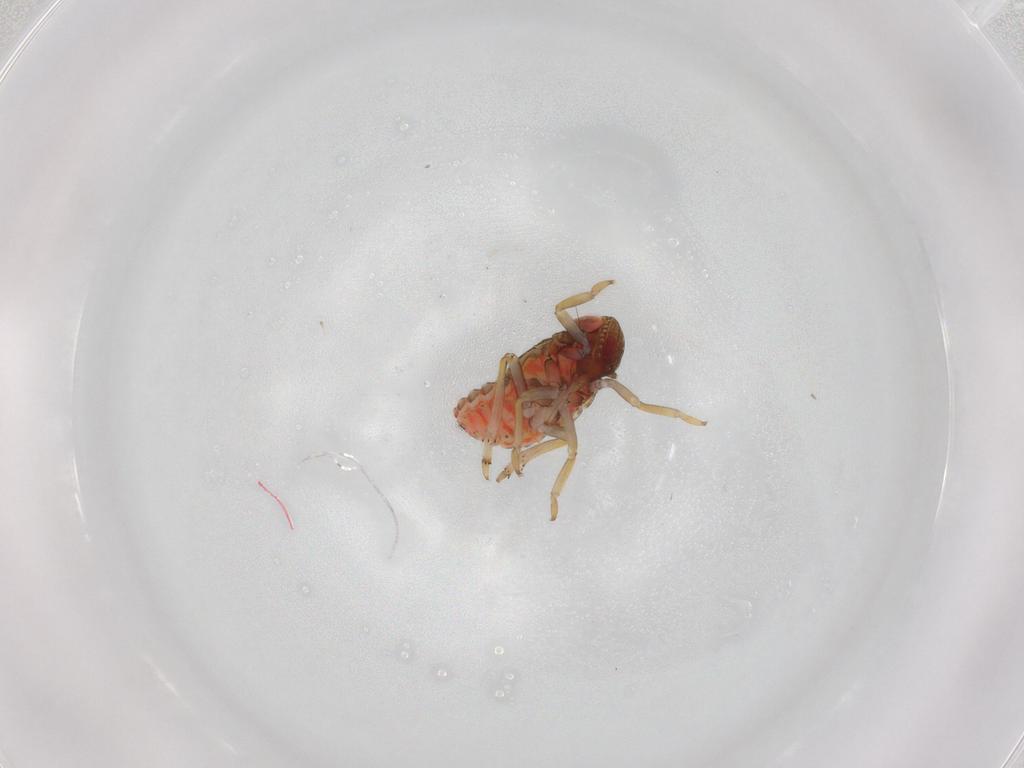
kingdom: Animalia
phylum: Arthropoda
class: Insecta
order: Hemiptera
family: Issidae
